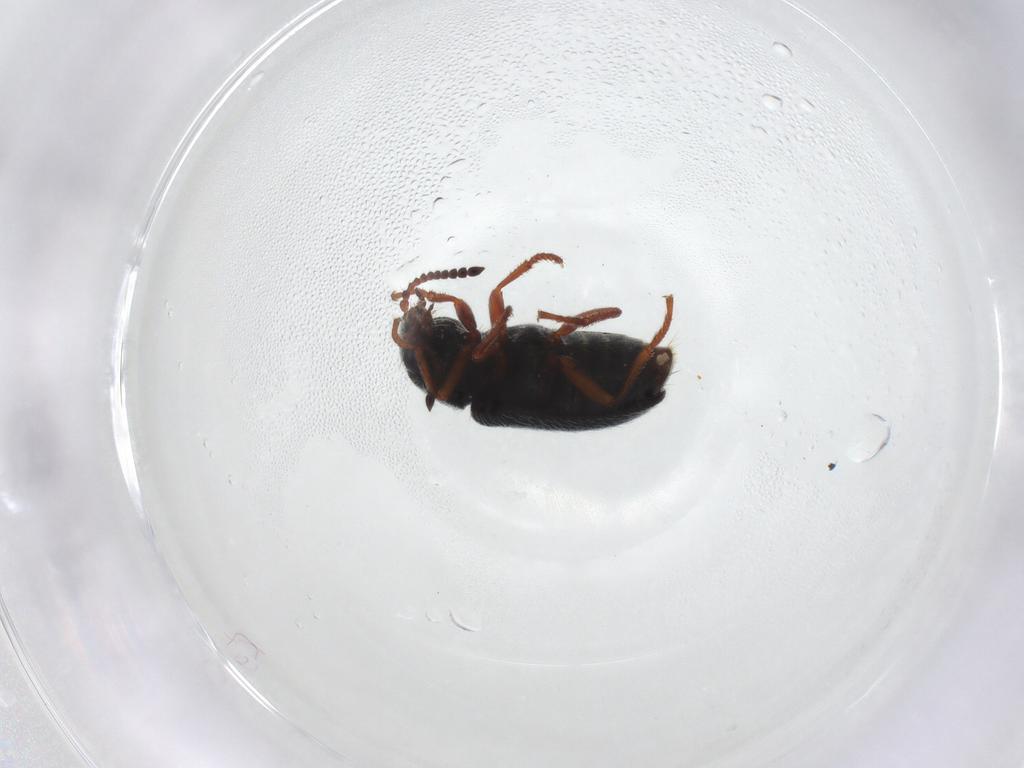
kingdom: Animalia
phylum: Arthropoda
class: Insecta
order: Coleoptera
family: Melyridae
